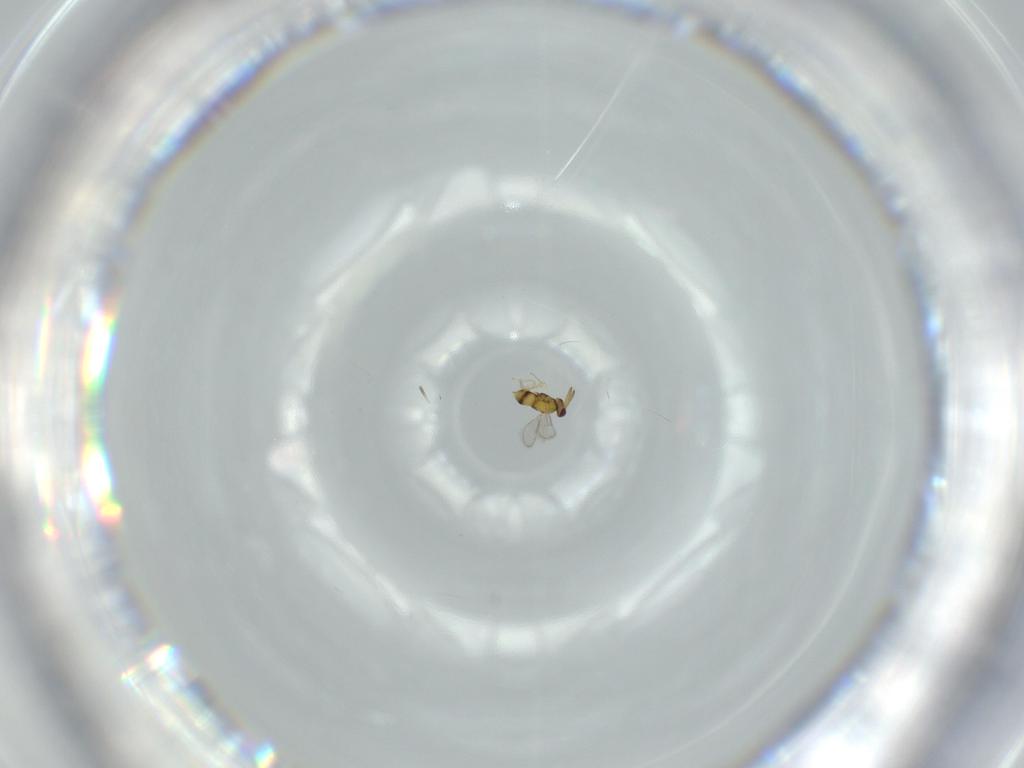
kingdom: Animalia
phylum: Arthropoda
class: Insecta
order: Hymenoptera
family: Aphelinidae
